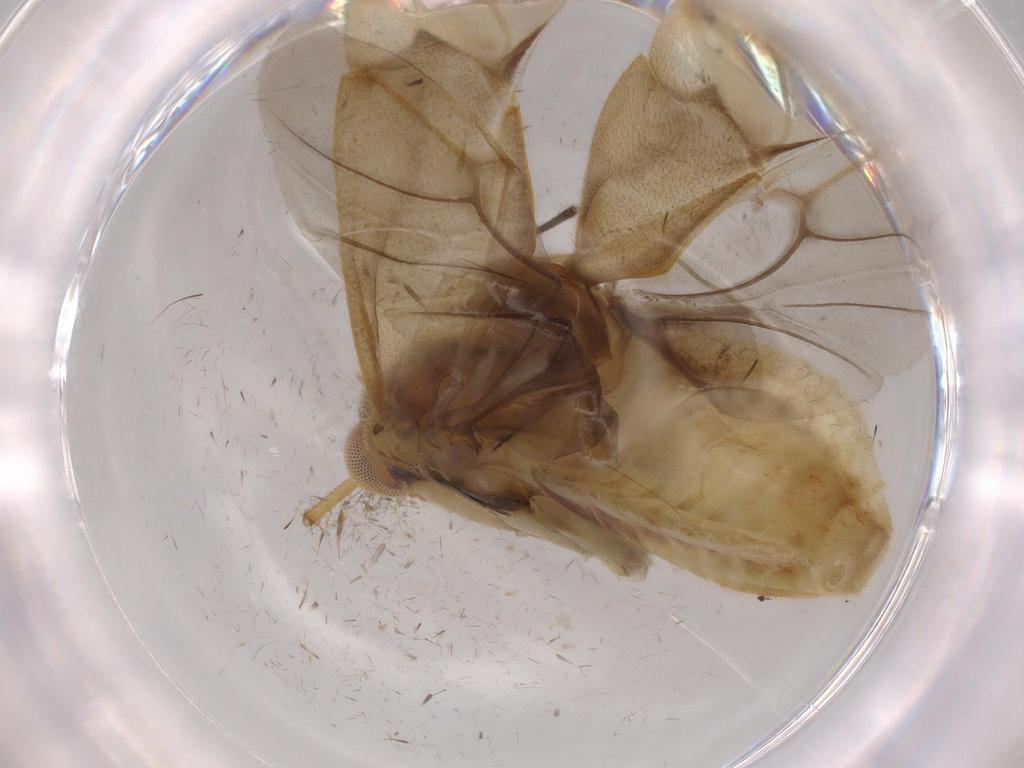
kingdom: Animalia
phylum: Arthropoda
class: Insecta
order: Hemiptera
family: Miridae
